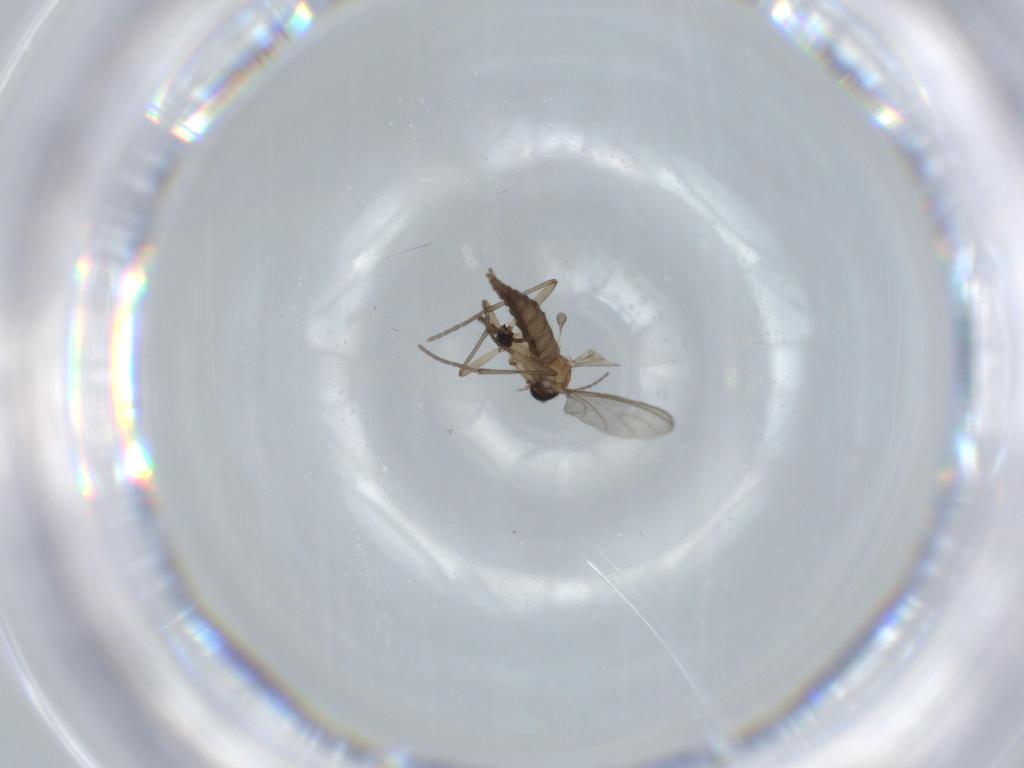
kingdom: Animalia
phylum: Arthropoda
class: Insecta
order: Diptera
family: Sciaridae
